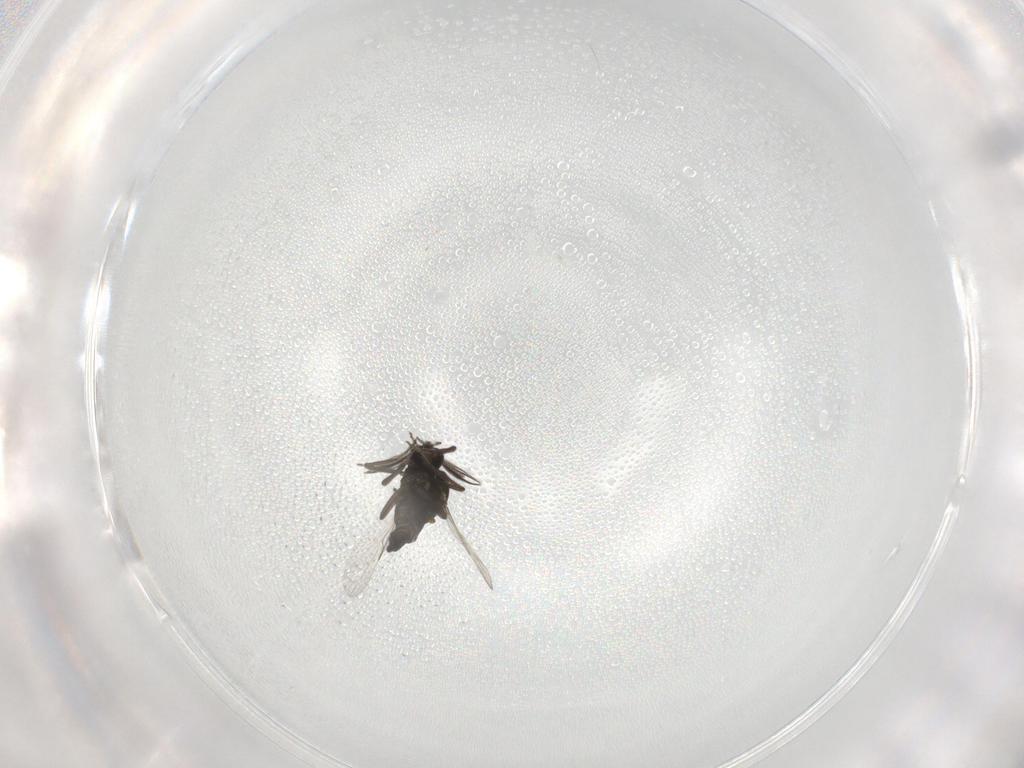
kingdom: Animalia
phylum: Arthropoda
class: Insecta
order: Diptera
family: Ceratopogonidae
